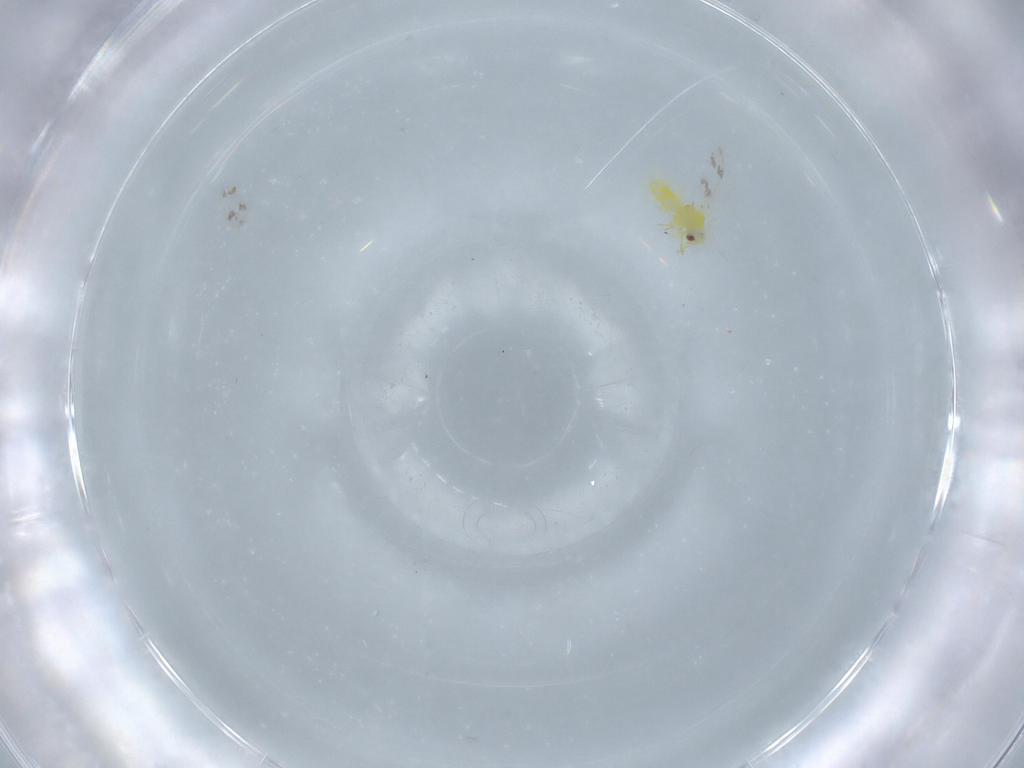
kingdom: Animalia
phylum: Arthropoda
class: Insecta
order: Hemiptera
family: Aleyrodidae
